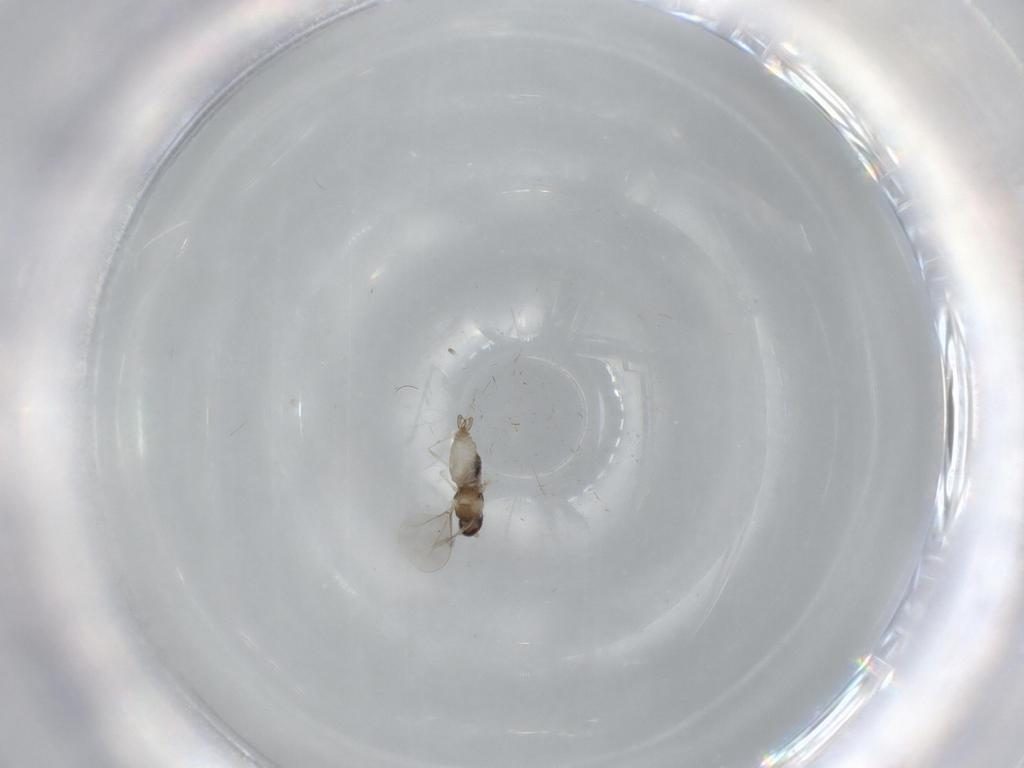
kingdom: Animalia
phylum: Arthropoda
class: Insecta
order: Diptera
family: Cecidomyiidae
